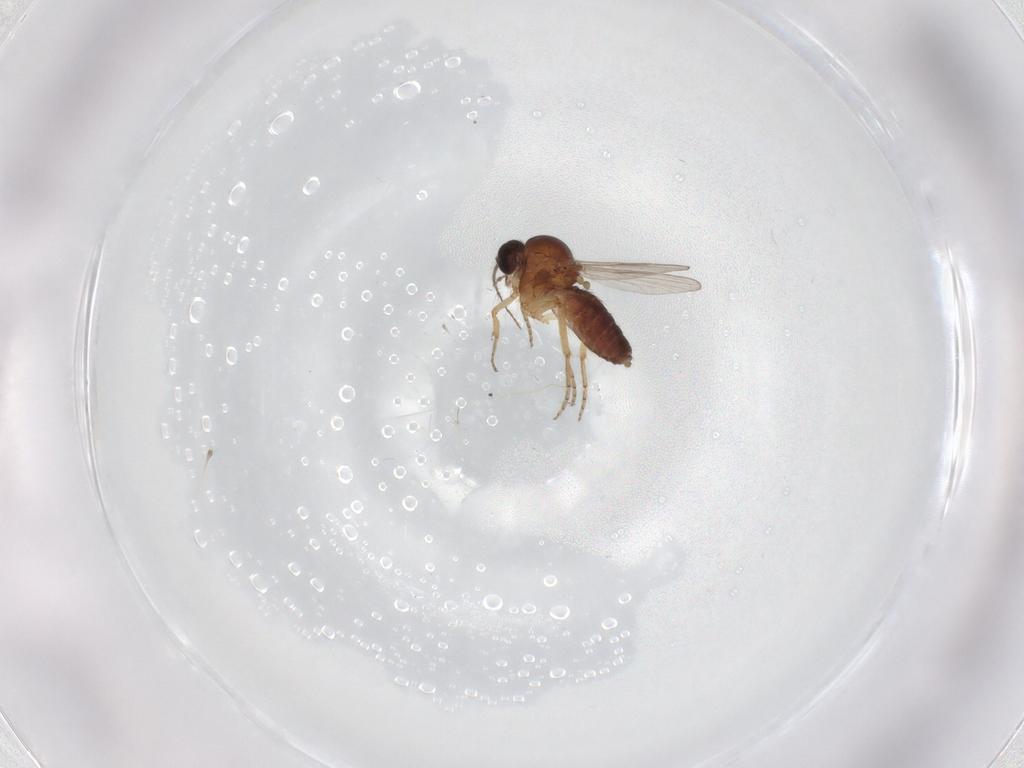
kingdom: Animalia
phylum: Arthropoda
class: Insecta
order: Diptera
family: Ceratopogonidae
